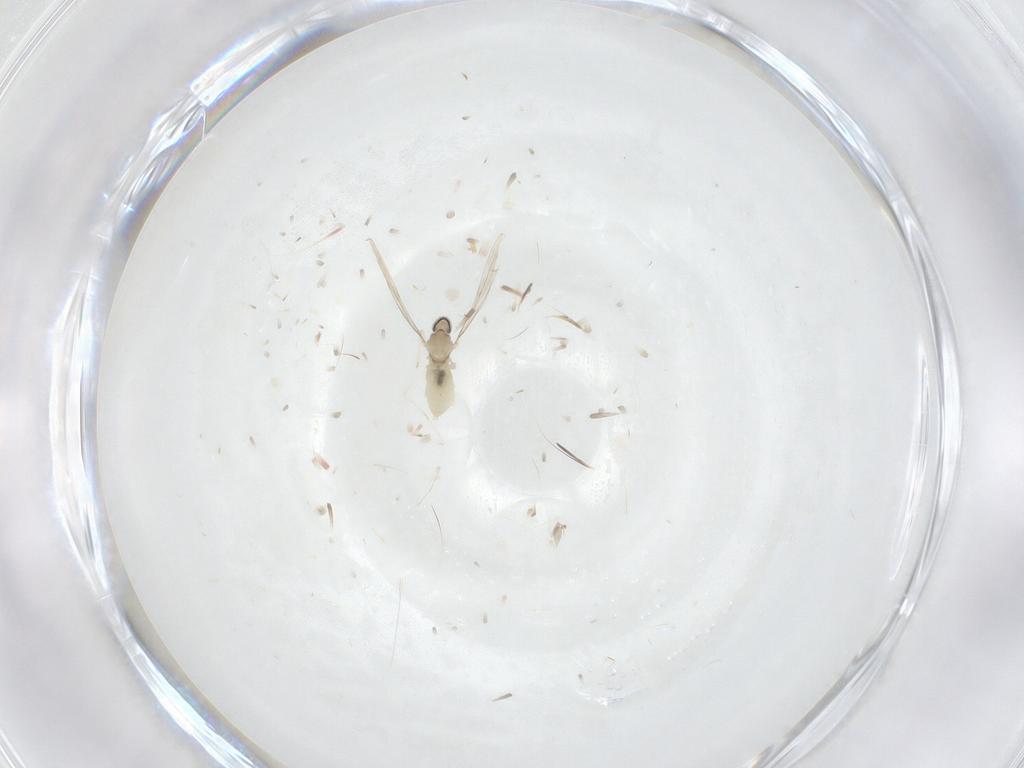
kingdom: Animalia
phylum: Arthropoda
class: Insecta
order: Diptera
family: Cecidomyiidae
